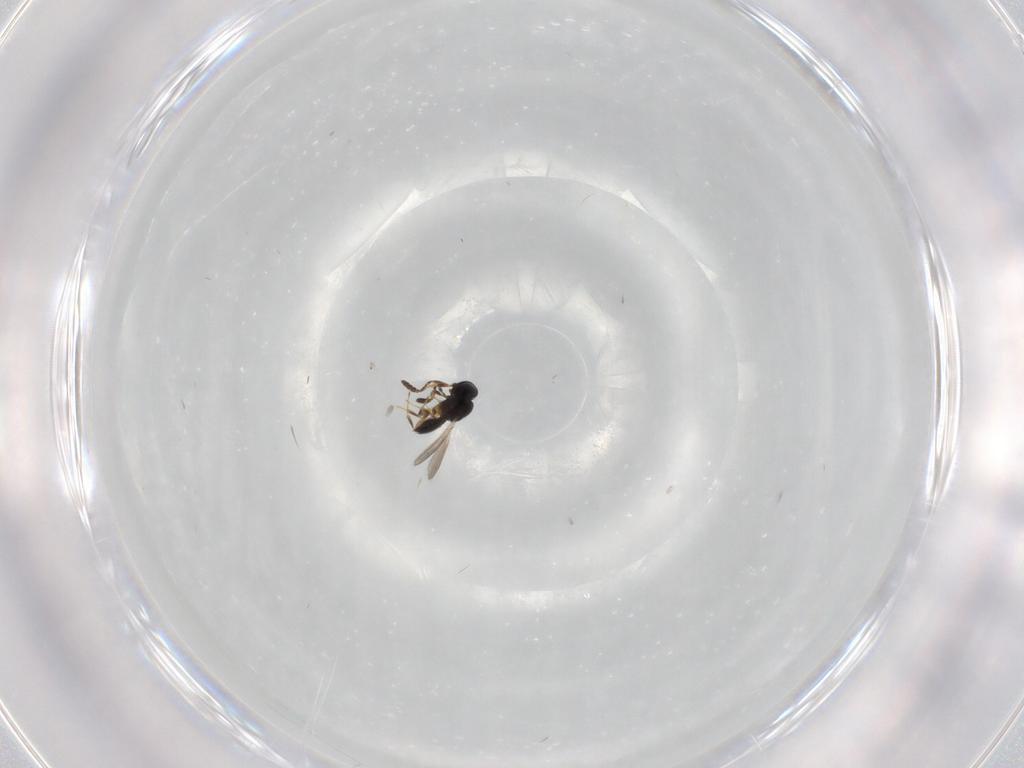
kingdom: Animalia
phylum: Arthropoda
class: Insecta
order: Hymenoptera
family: Scelionidae
